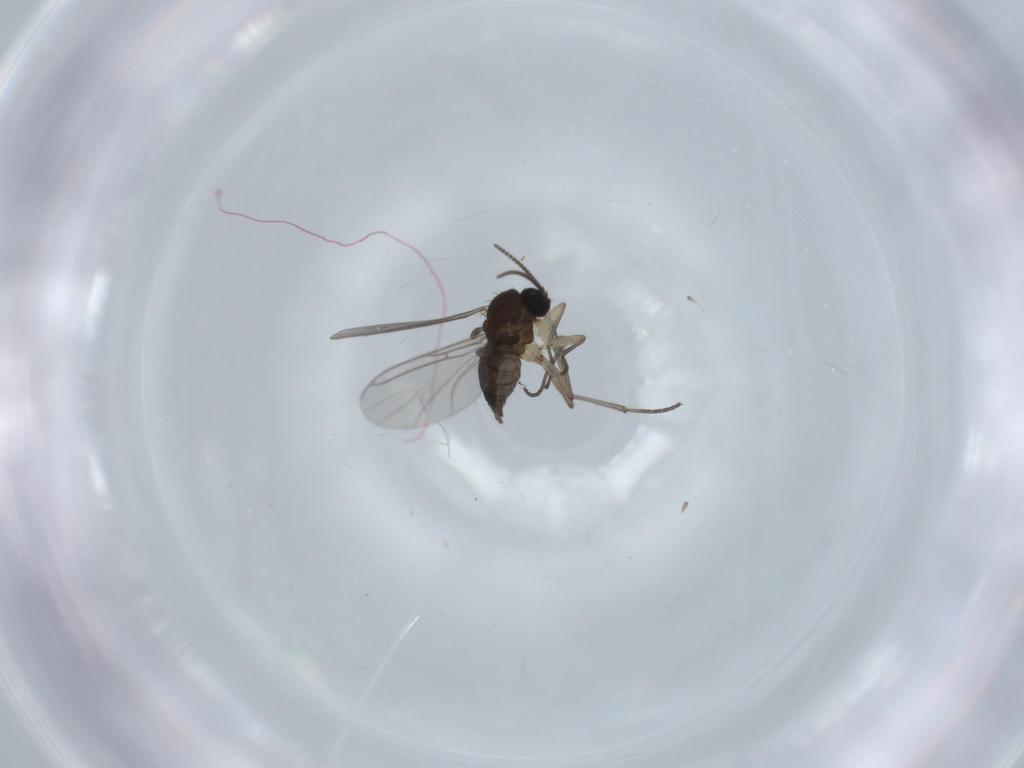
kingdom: Animalia
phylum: Arthropoda
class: Insecta
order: Diptera
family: Sciaridae
